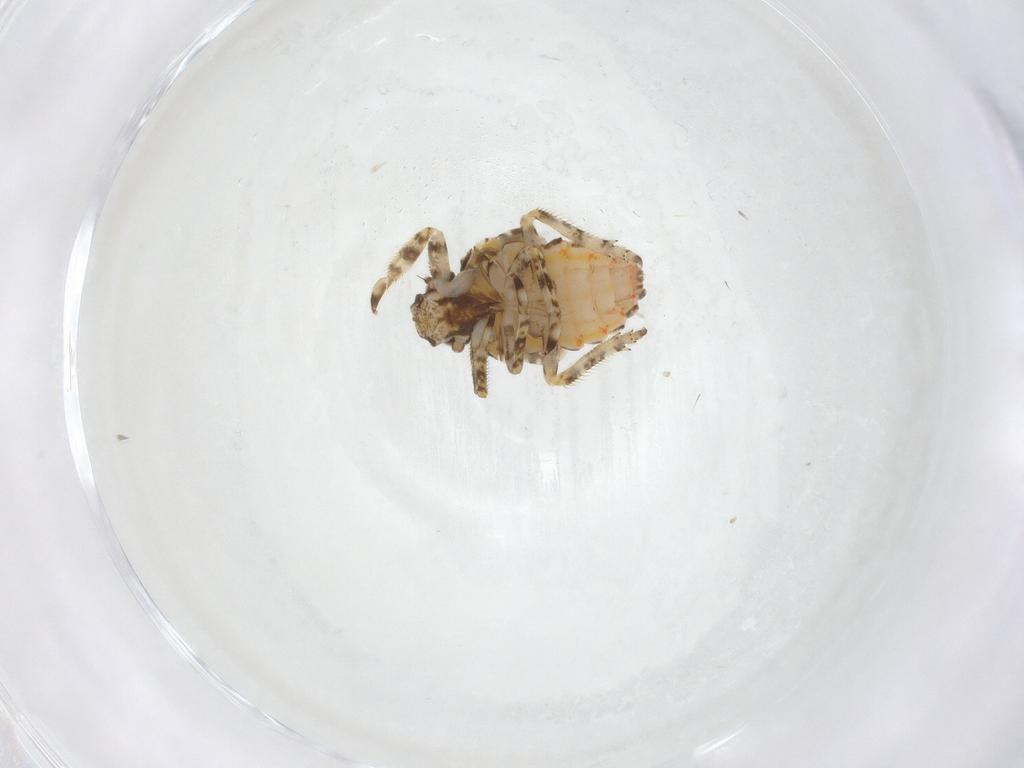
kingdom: Animalia
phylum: Arthropoda
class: Insecta
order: Hemiptera
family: Nogodinidae
